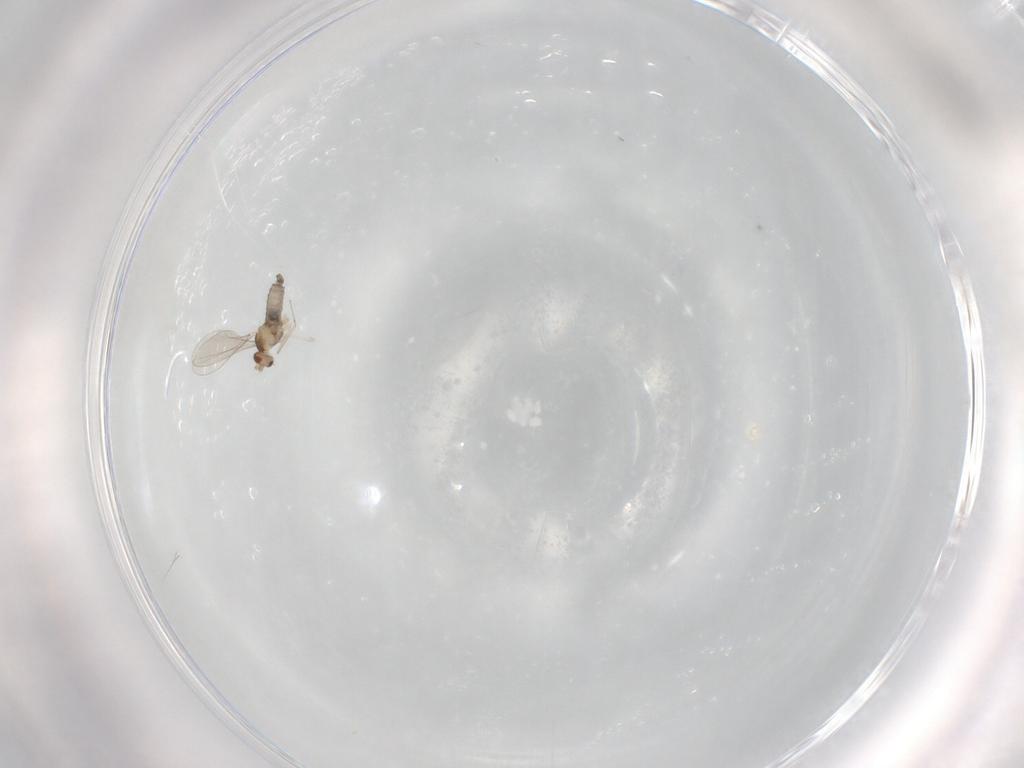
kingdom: Animalia
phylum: Arthropoda
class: Insecta
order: Diptera
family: Cecidomyiidae
